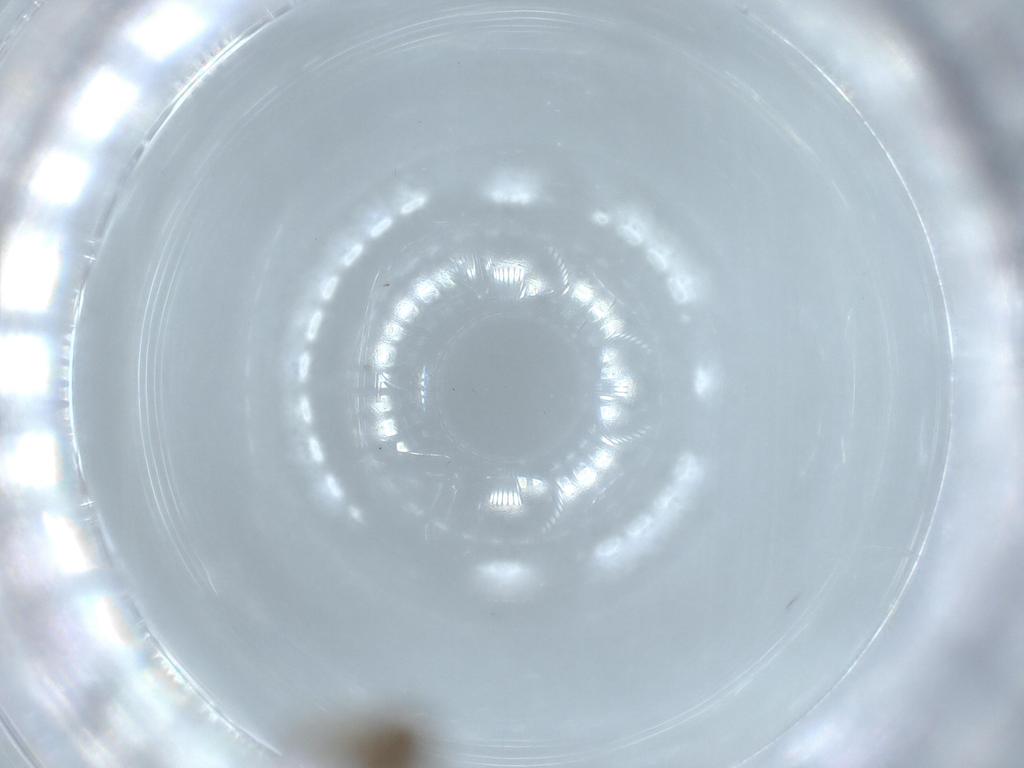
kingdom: Animalia
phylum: Arthropoda
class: Insecta
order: Diptera
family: Ceratopogonidae
